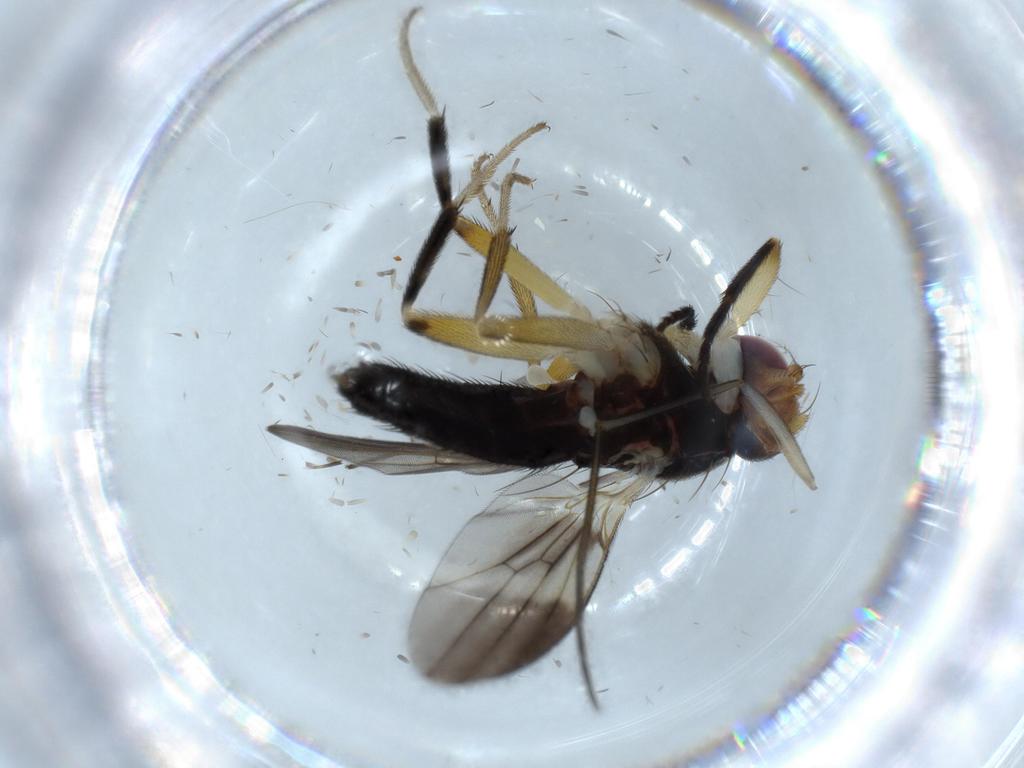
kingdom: Animalia
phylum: Arthropoda
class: Insecta
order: Diptera
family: Clusiidae
